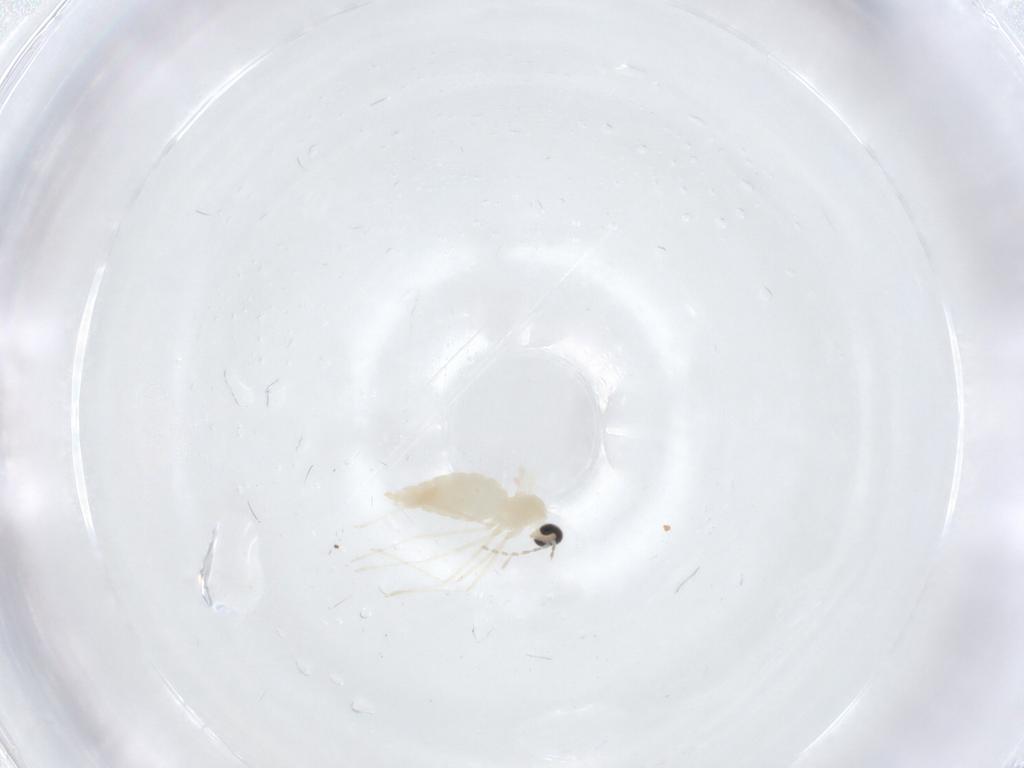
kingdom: Animalia
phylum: Arthropoda
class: Insecta
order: Diptera
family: Cecidomyiidae
